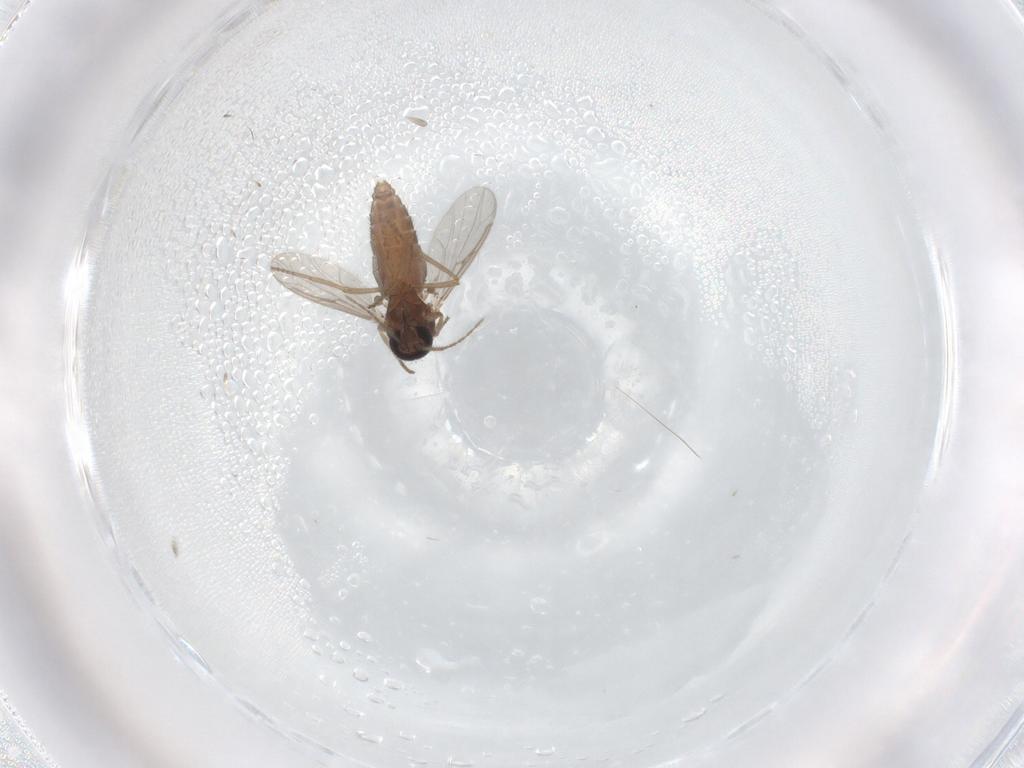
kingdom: Animalia
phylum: Arthropoda
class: Insecta
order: Diptera
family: Ceratopogonidae
